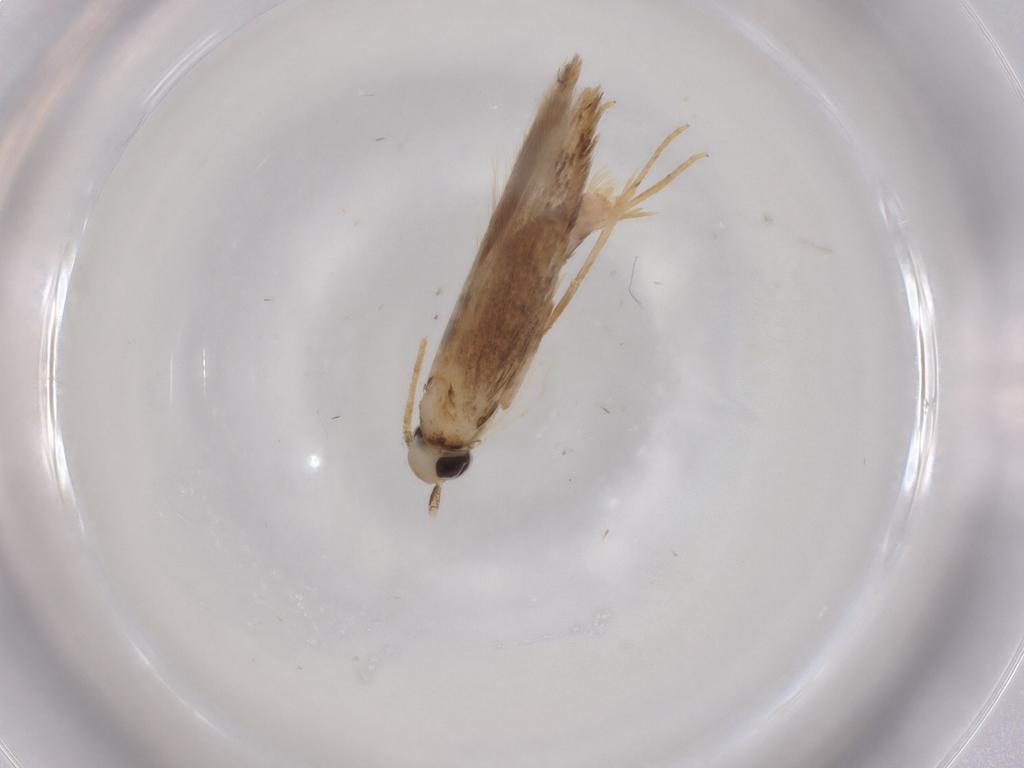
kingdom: Animalia
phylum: Arthropoda
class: Insecta
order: Lepidoptera
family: Coleophoridae
